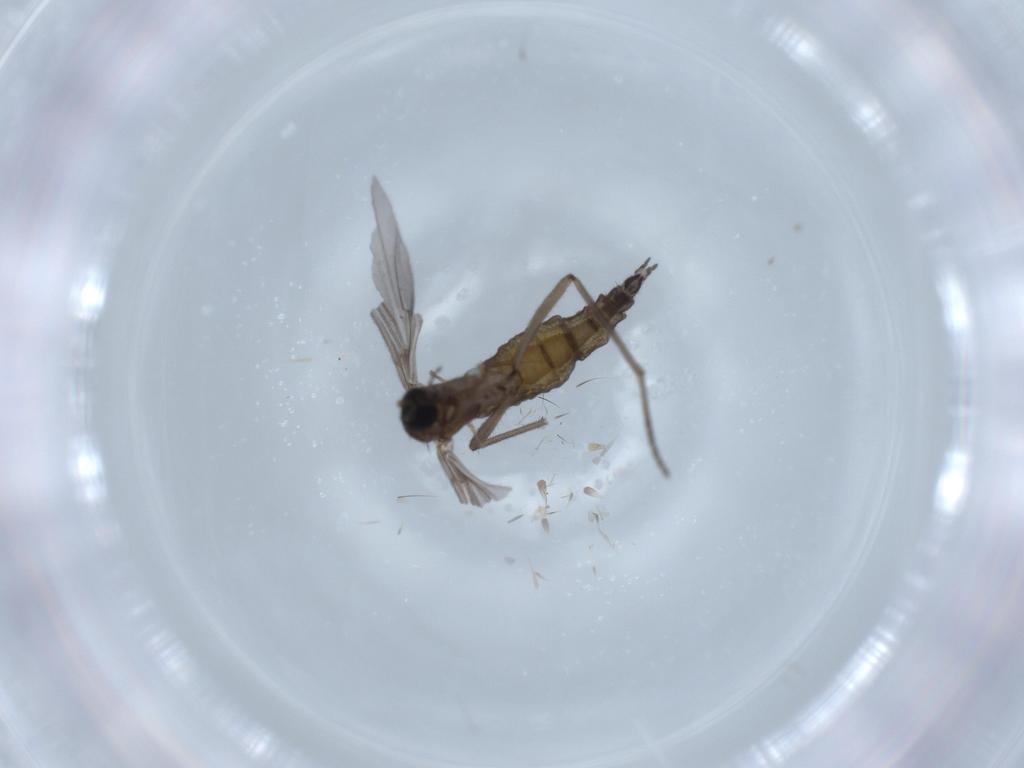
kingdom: Animalia
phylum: Arthropoda
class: Insecta
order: Diptera
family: Sciaridae
